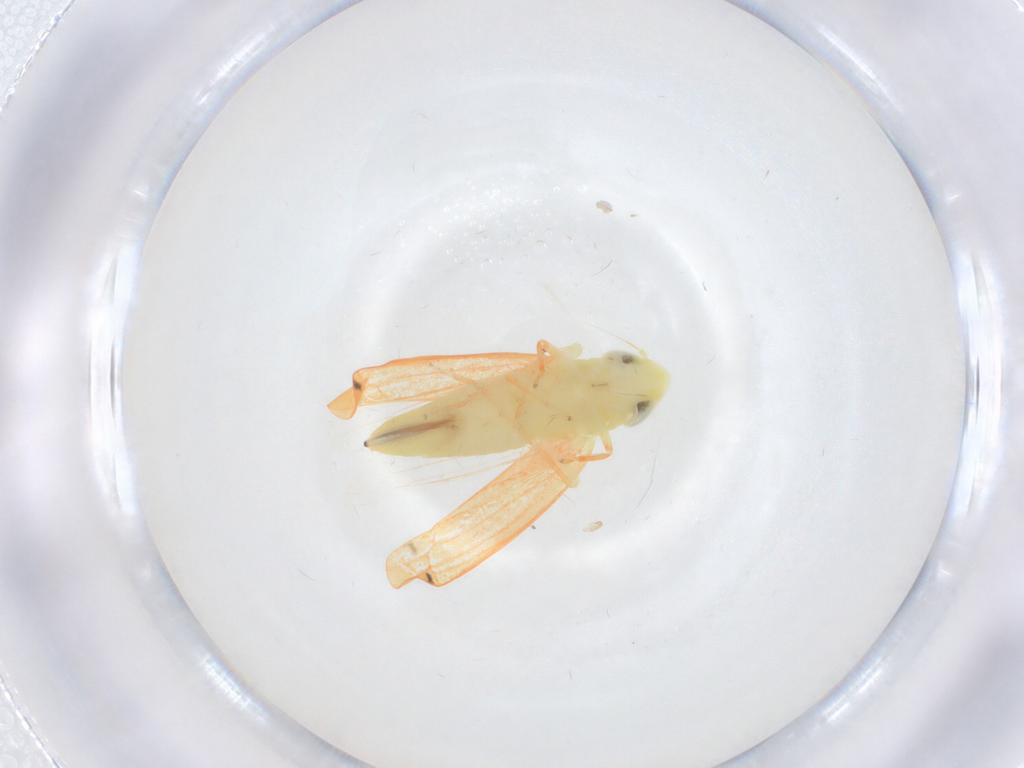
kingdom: Animalia
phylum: Arthropoda
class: Insecta
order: Hemiptera
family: Cicadellidae
